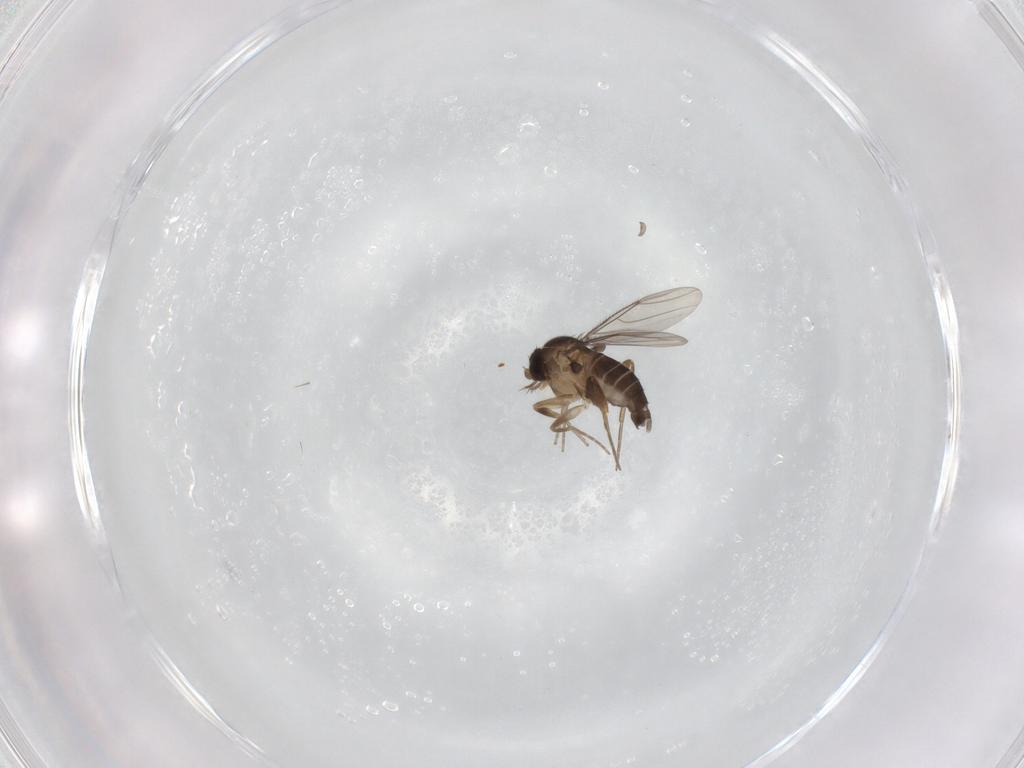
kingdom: Animalia
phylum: Arthropoda
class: Insecta
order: Diptera
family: Phoridae
